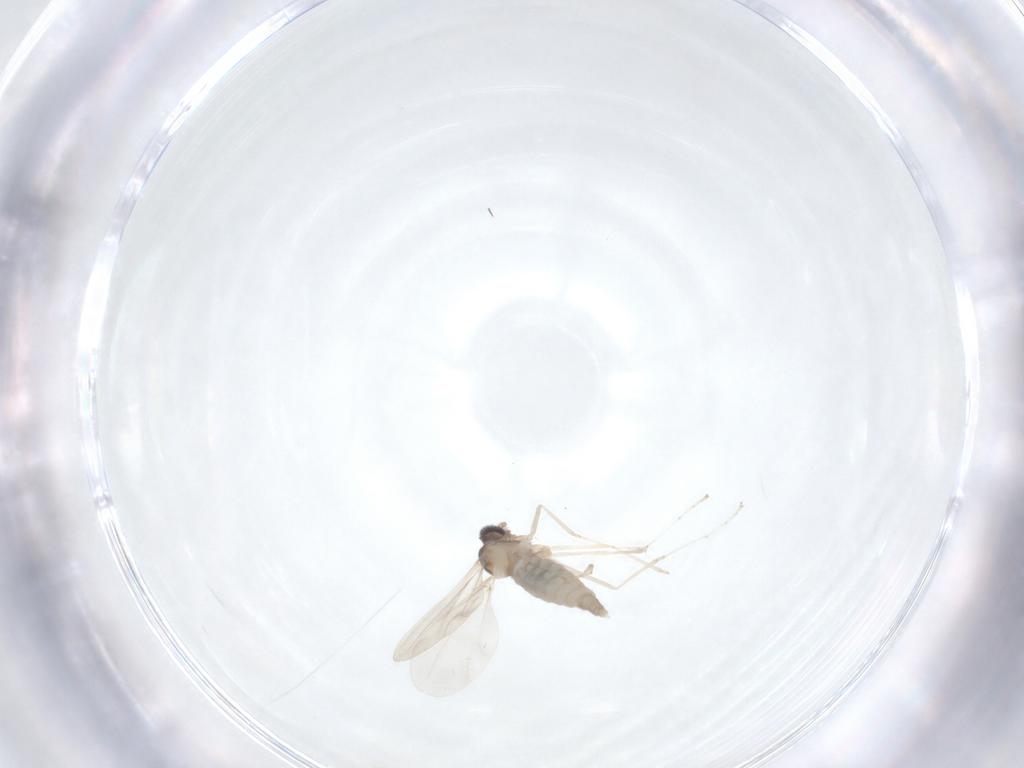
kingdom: Animalia
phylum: Arthropoda
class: Insecta
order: Diptera
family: Cecidomyiidae
